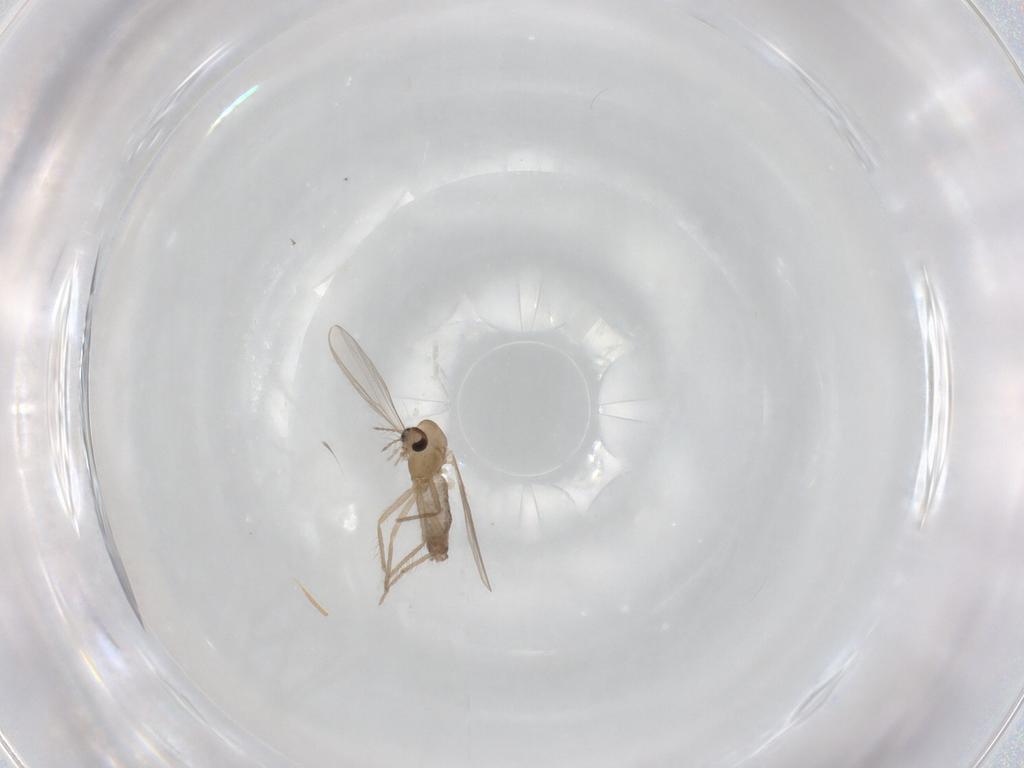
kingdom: Animalia
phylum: Arthropoda
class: Insecta
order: Diptera
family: Chironomidae
